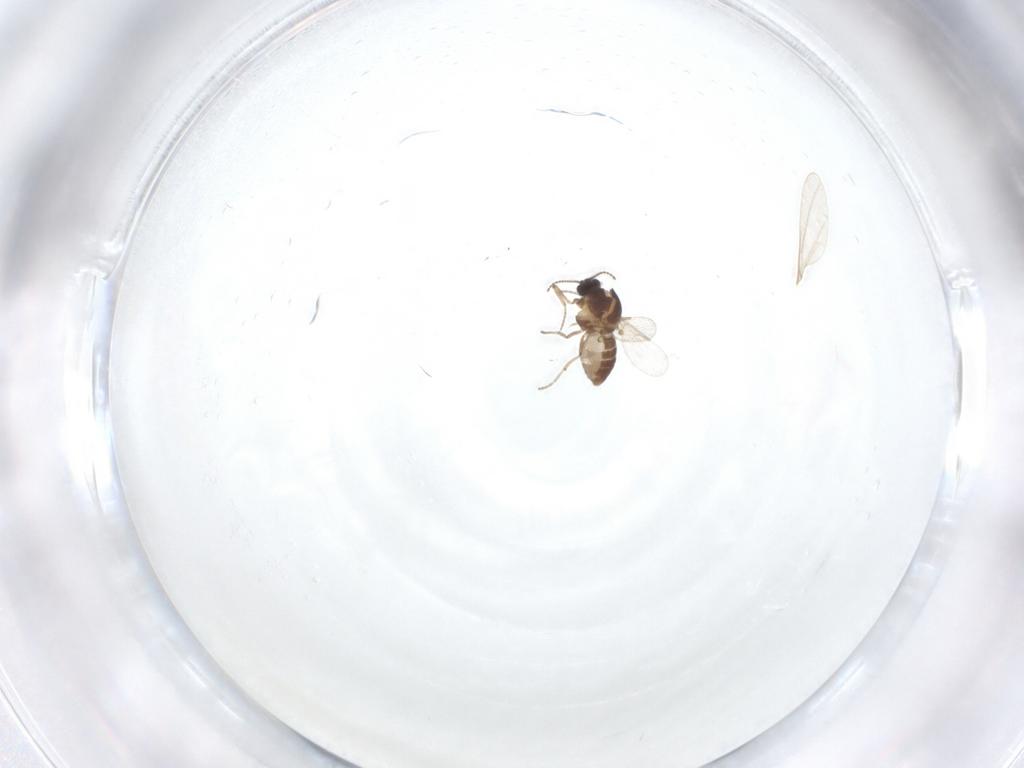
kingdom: Animalia
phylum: Arthropoda
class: Insecta
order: Diptera
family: Ceratopogonidae
